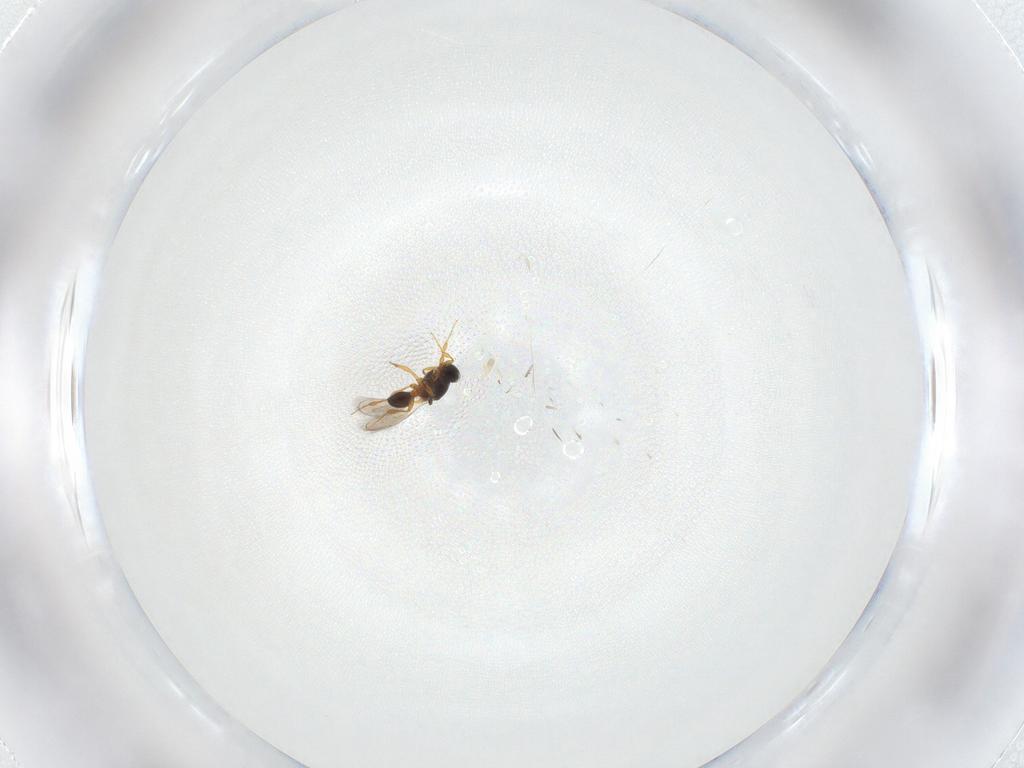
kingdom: Animalia
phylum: Arthropoda
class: Insecta
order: Hymenoptera
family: Platygastridae
